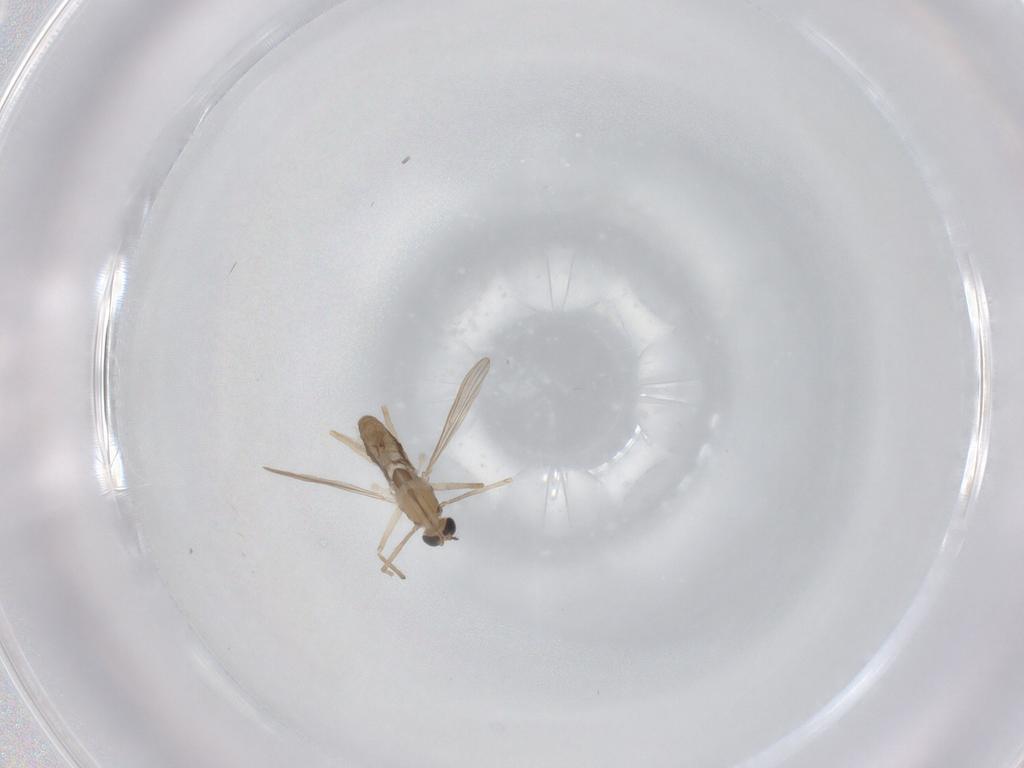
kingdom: Animalia
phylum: Arthropoda
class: Insecta
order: Diptera
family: Chironomidae
